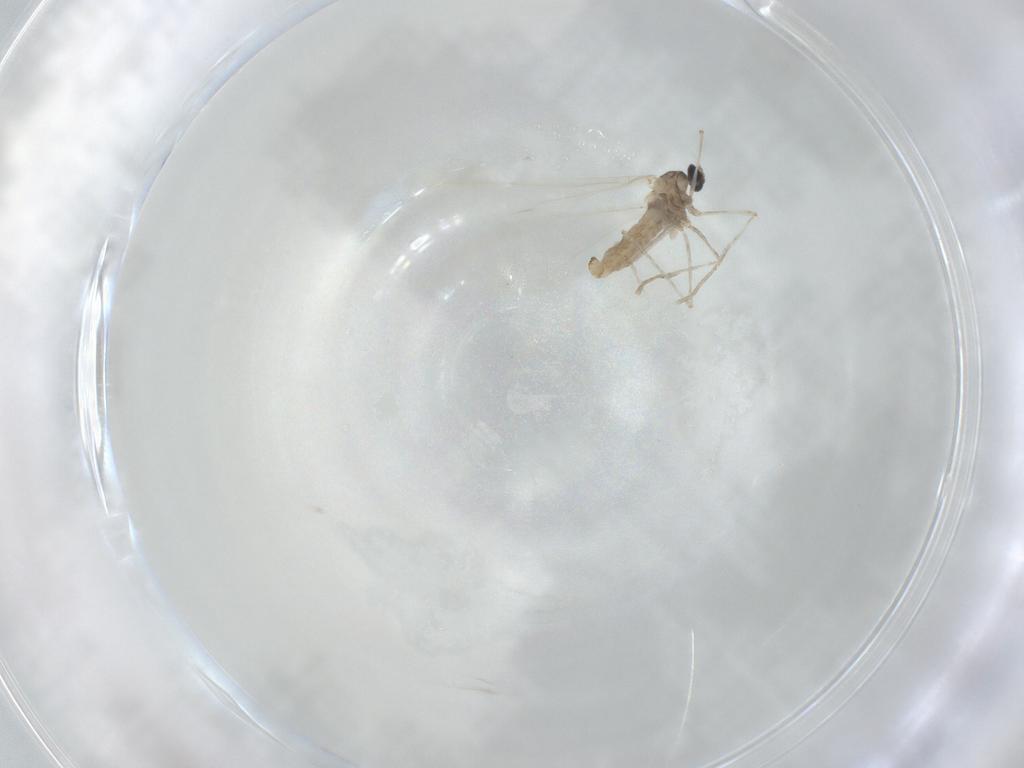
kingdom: Animalia
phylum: Arthropoda
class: Insecta
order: Diptera
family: Cecidomyiidae
